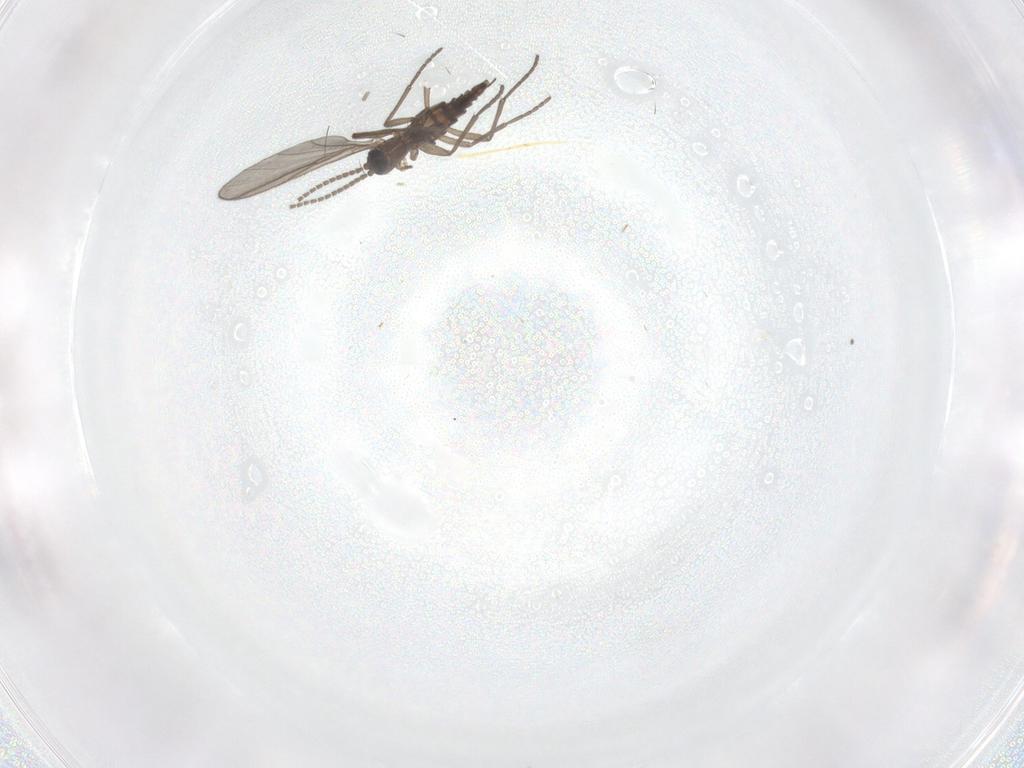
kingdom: Animalia
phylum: Arthropoda
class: Insecta
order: Diptera
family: Sciaridae
